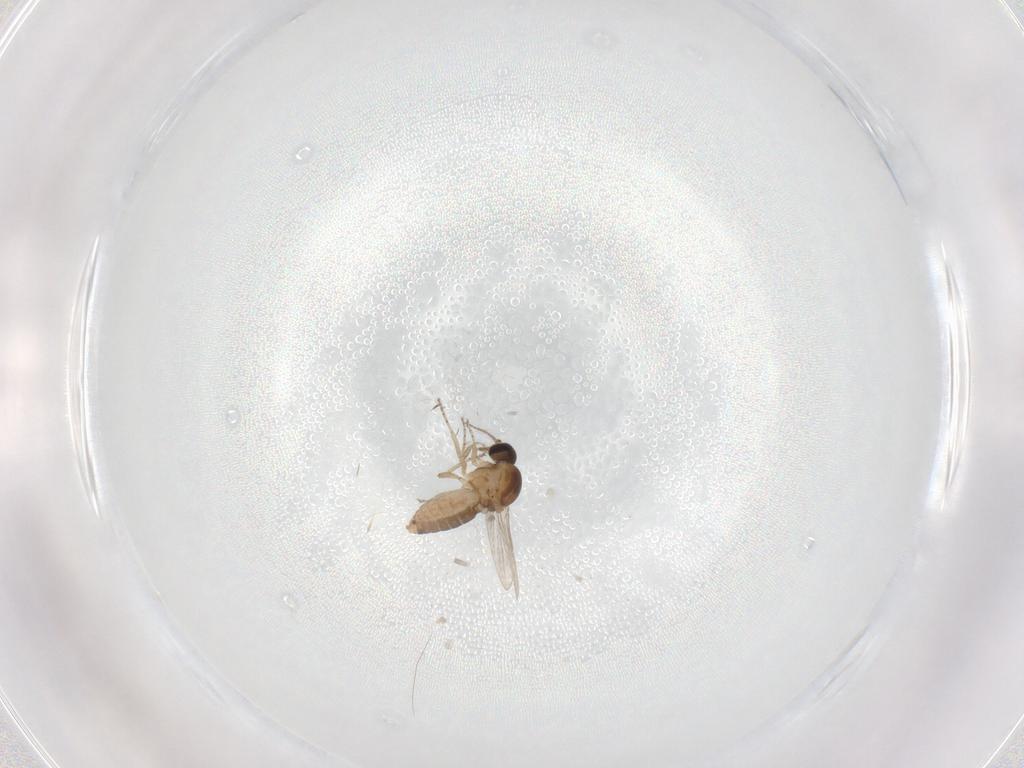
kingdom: Animalia
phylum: Arthropoda
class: Insecta
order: Diptera
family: Ceratopogonidae
